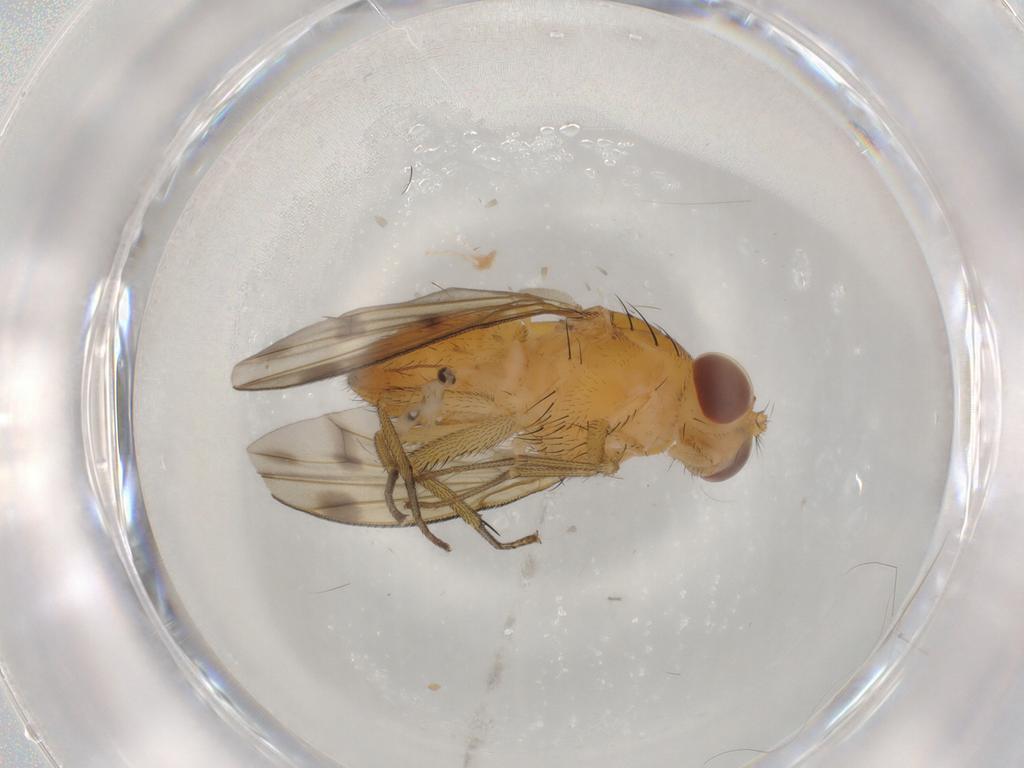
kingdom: Animalia
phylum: Arthropoda
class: Insecta
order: Diptera
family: Cecidomyiidae
